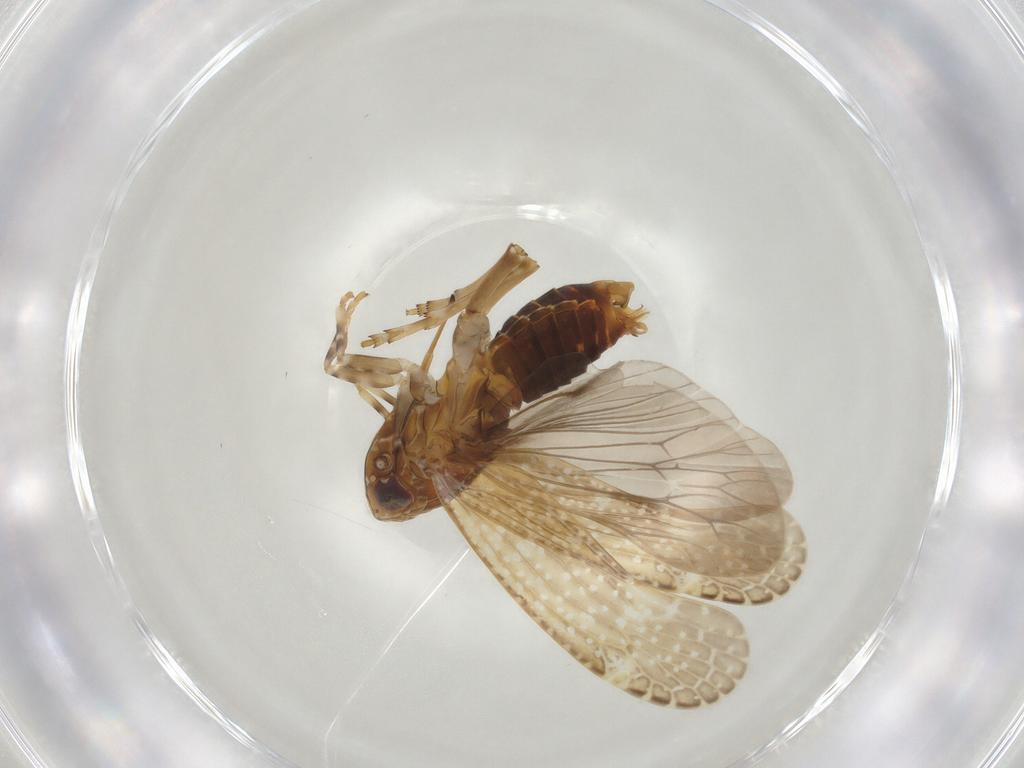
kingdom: Animalia
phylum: Arthropoda
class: Insecta
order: Hemiptera
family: Achilidae
